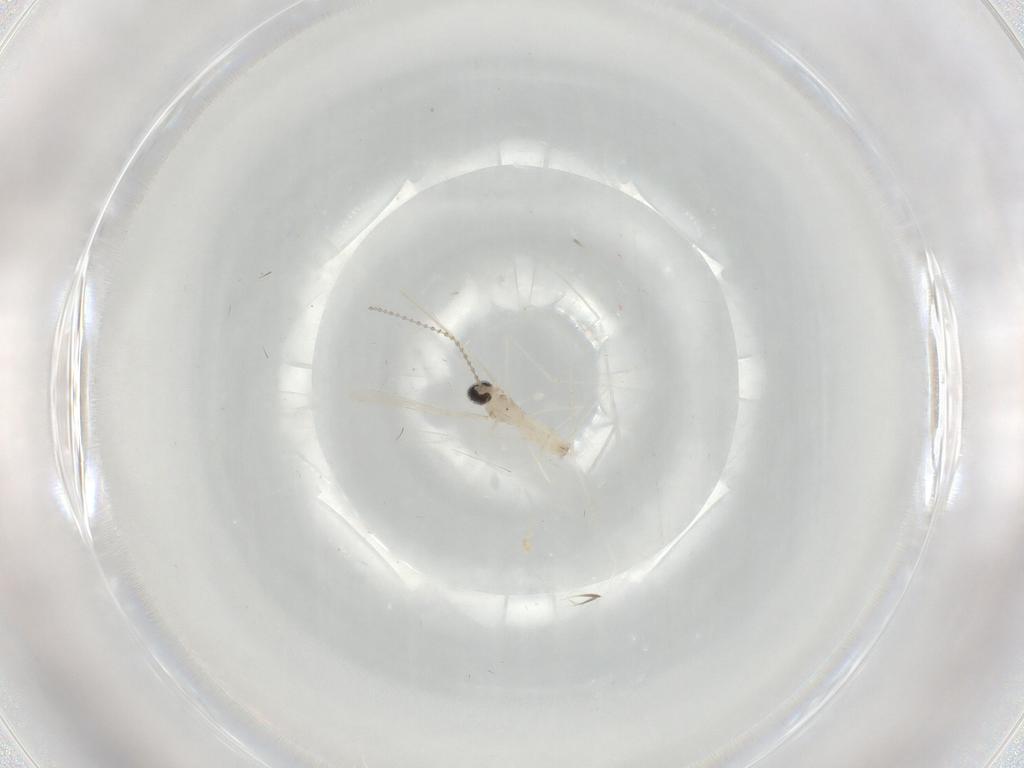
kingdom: Animalia
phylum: Arthropoda
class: Insecta
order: Diptera
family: Cecidomyiidae
